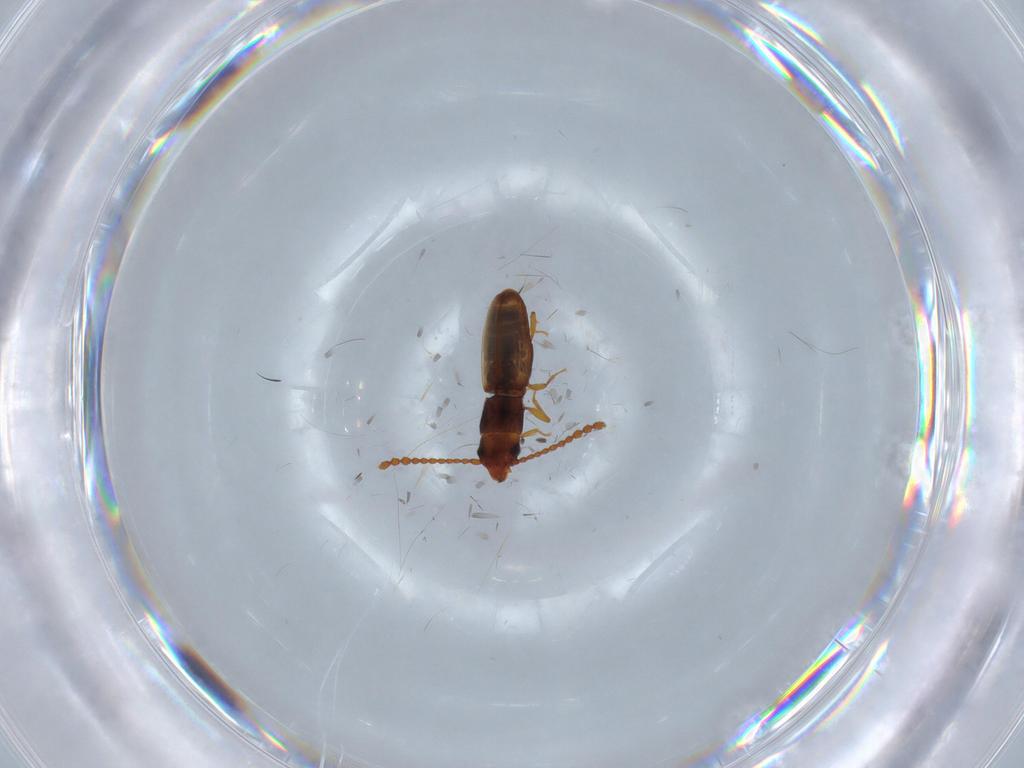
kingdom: Animalia
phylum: Arthropoda
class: Insecta
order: Coleoptera
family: Laemophloeidae
